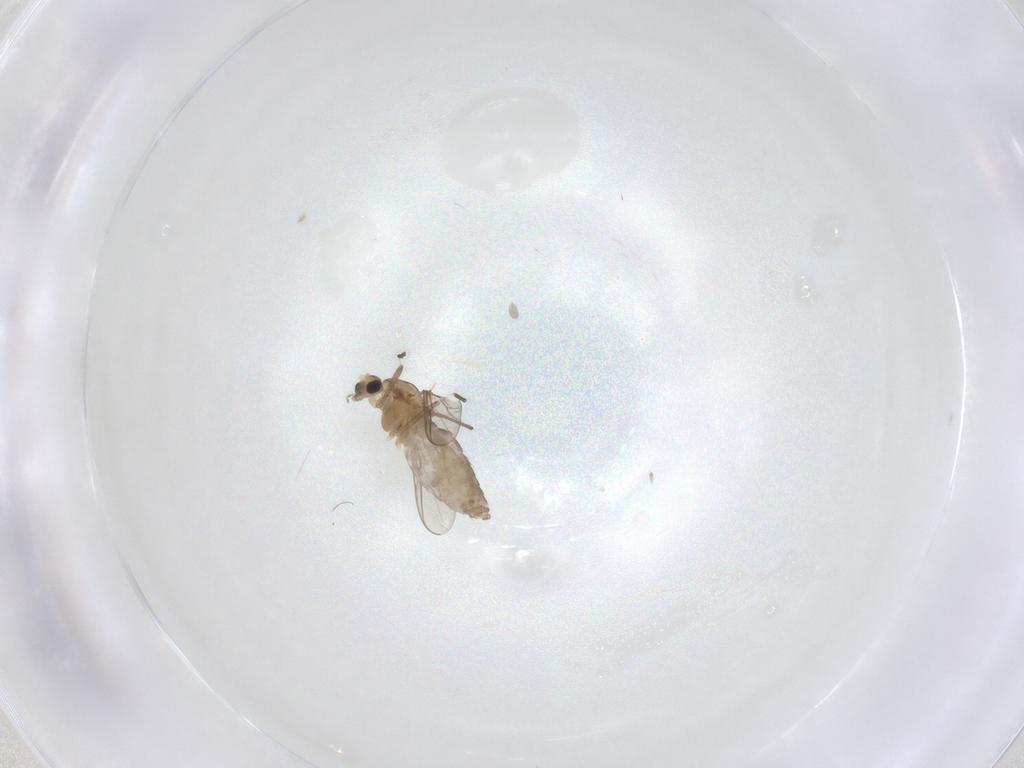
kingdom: Animalia
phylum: Arthropoda
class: Insecta
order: Diptera
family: Chironomidae
